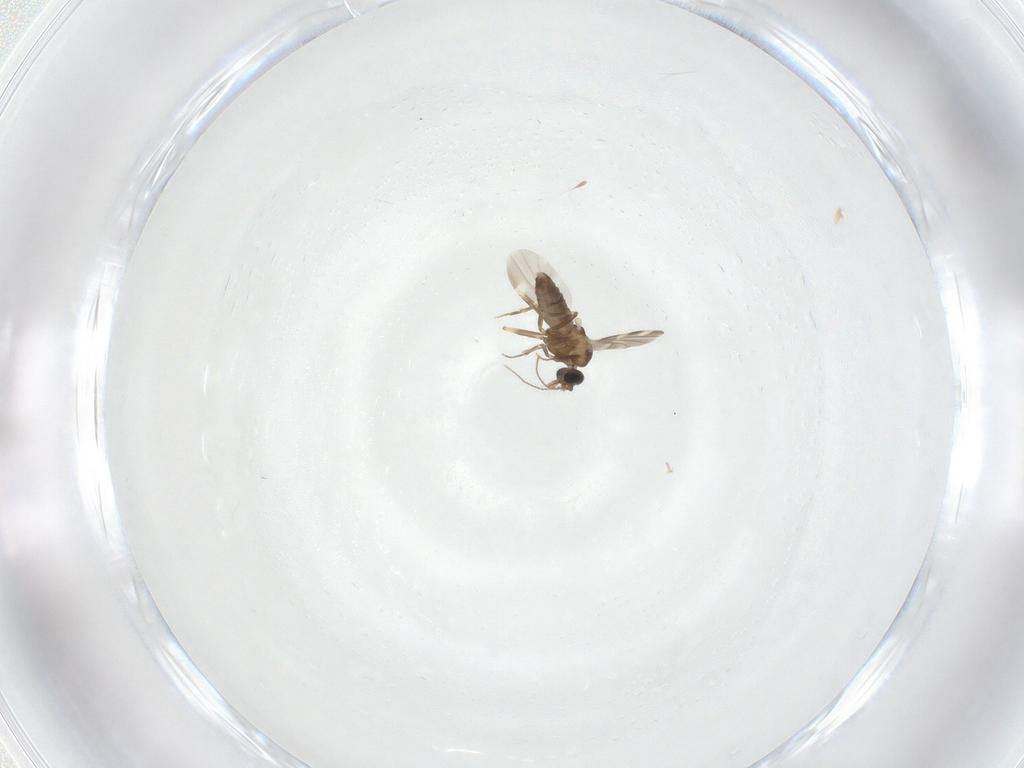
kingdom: Animalia
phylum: Arthropoda
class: Insecta
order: Diptera
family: Ceratopogonidae
